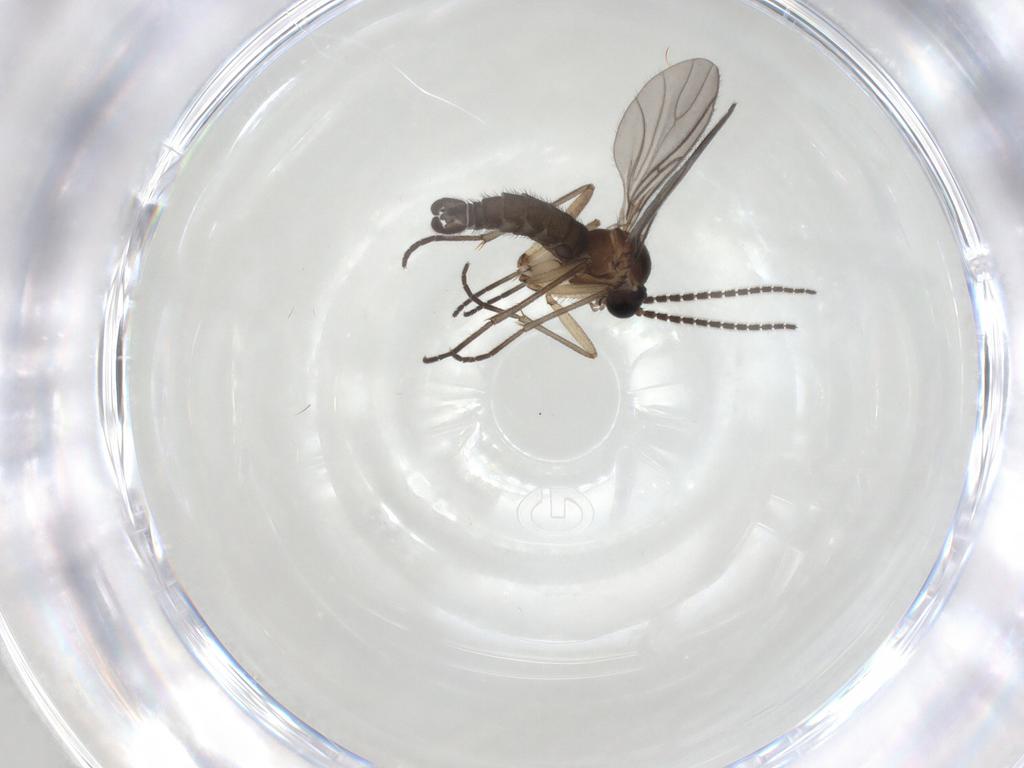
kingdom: Animalia
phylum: Arthropoda
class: Insecta
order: Diptera
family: Sciaridae
